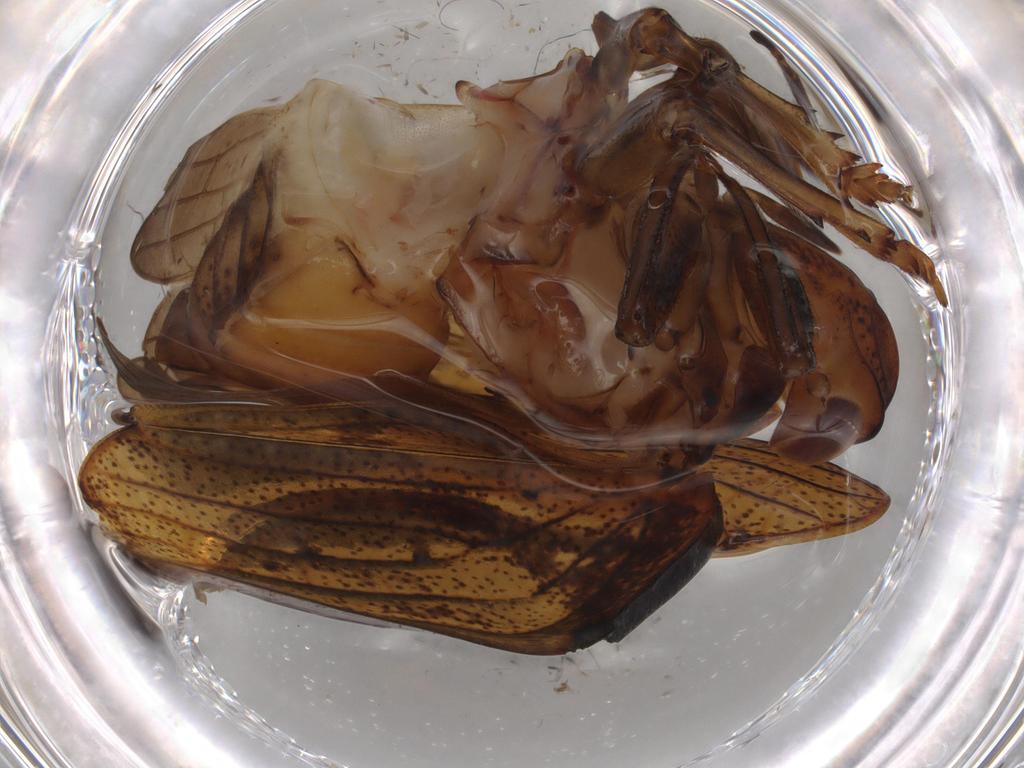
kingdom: Animalia
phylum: Arthropoda
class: Insecta
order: Hemiptera
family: Issidae
